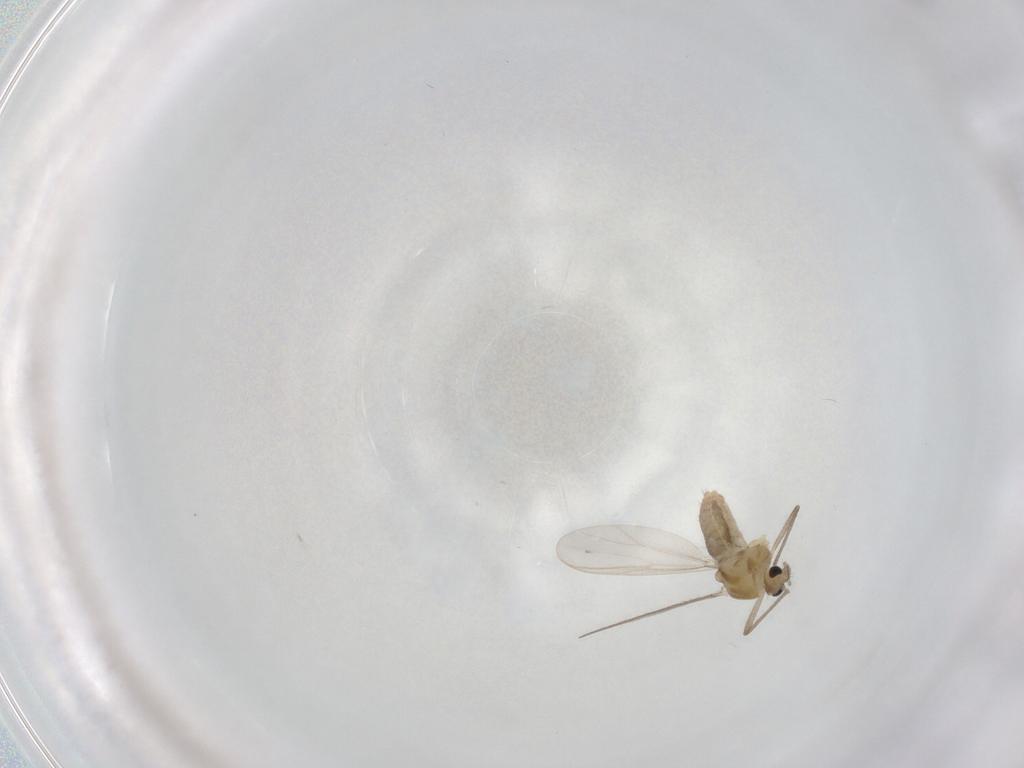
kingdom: Animalia
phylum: Arthropoda
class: Insecta
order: Diptera
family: Chironomidae
